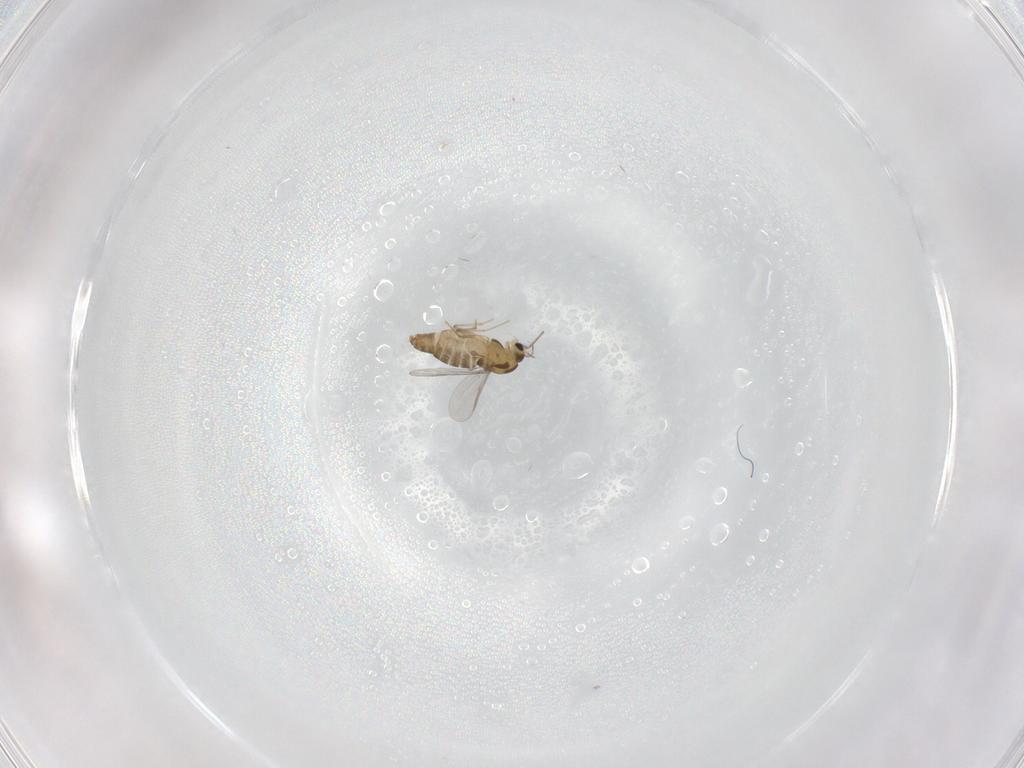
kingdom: Animalia
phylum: Arthropoda
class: Insecta
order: Diptera
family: Chironomidae
